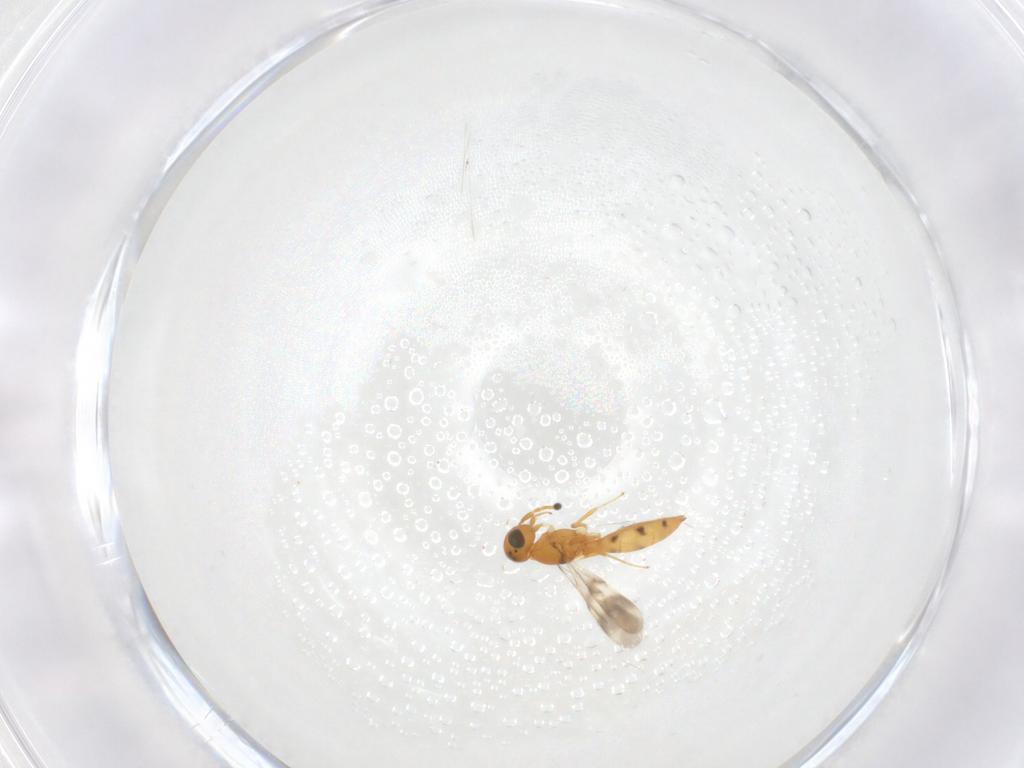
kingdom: Animalia
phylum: Arthropoda
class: Insecta
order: Hymenoptera
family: Scelionidae
